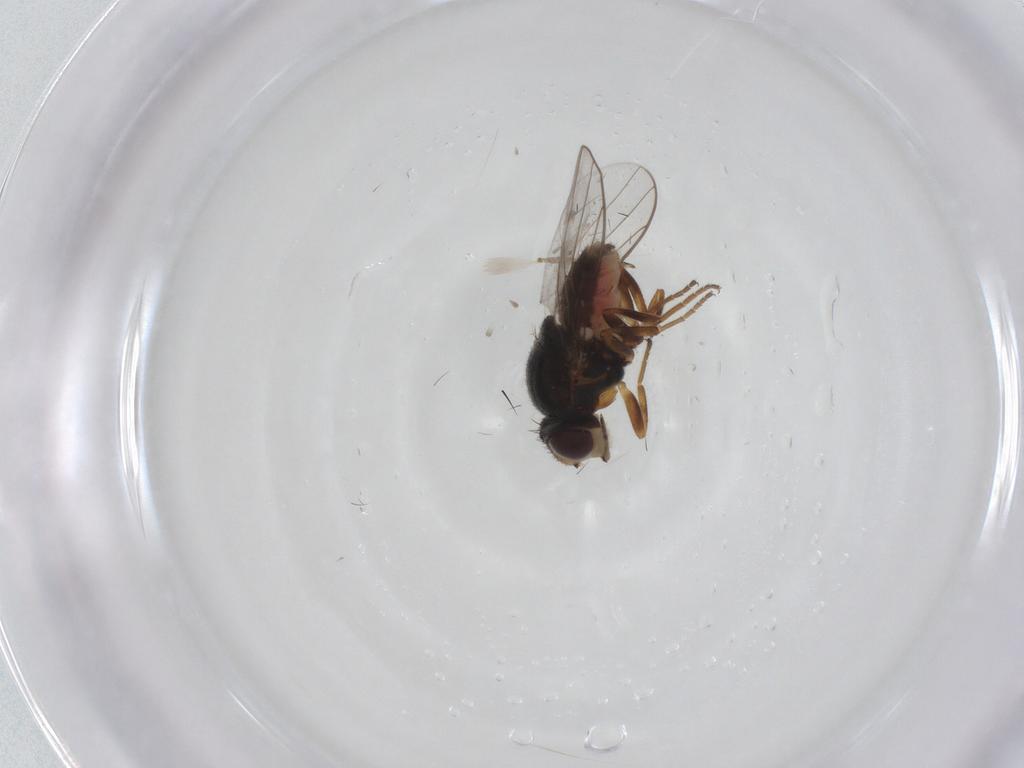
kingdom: Animalia
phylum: Arthropoda
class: Insecta
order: Diptera
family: Chloropidae
